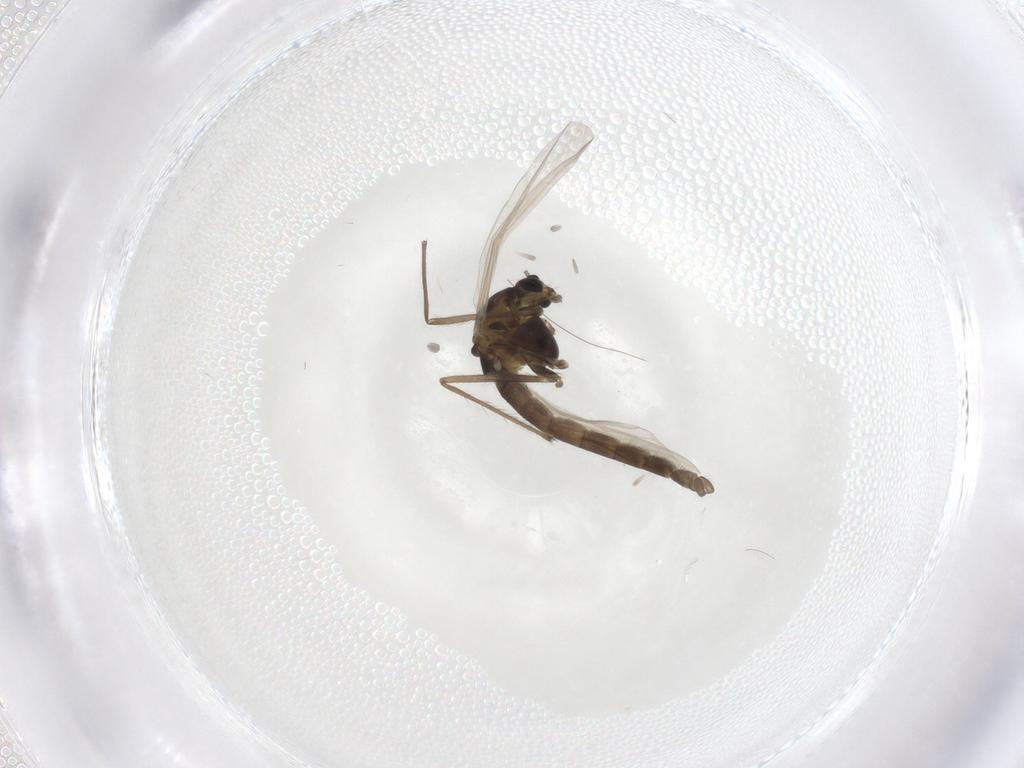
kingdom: Animalia
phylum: Arthropoda
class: Insecta
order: Diptera
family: Chironomidae
